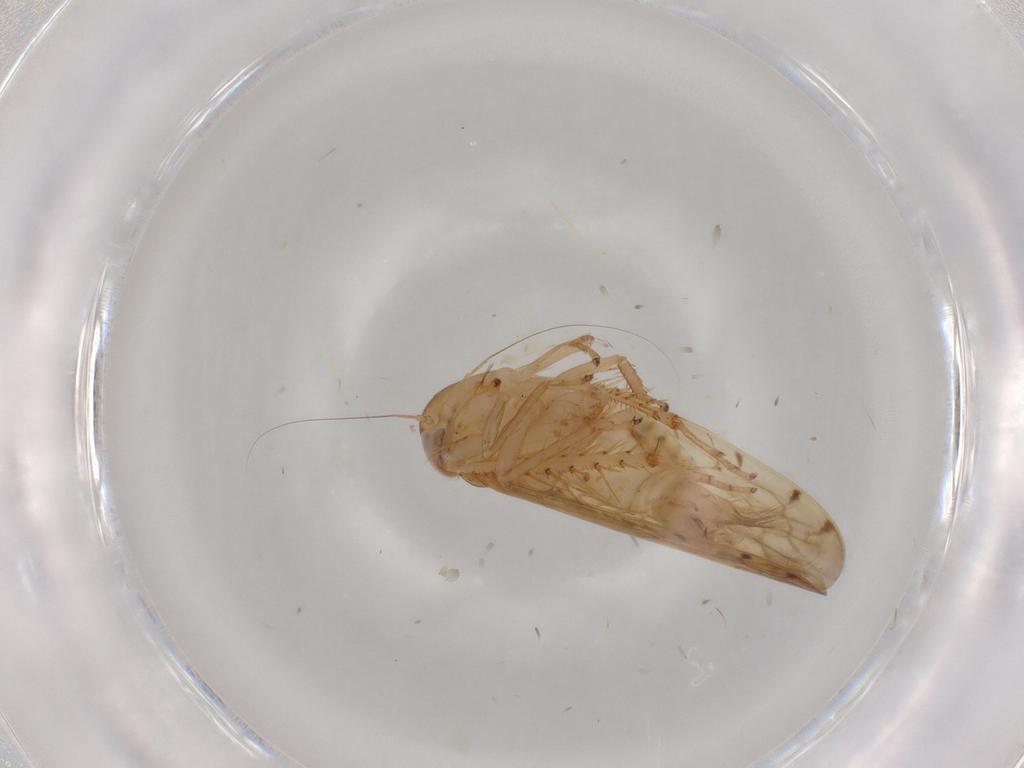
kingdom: Animalia
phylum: Arthropoda
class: Insecta
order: Hemiptera
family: Cicadellidae
